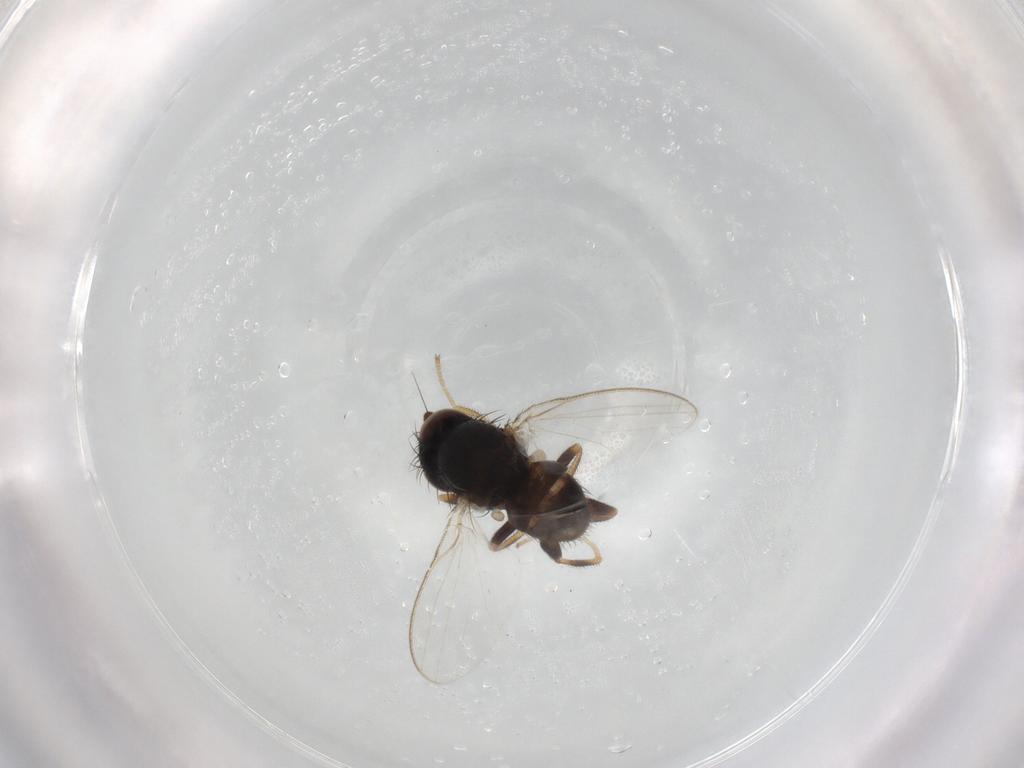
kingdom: Animalia
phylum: Arthropoda
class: Insecta
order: Diptera
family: Milichiidae
